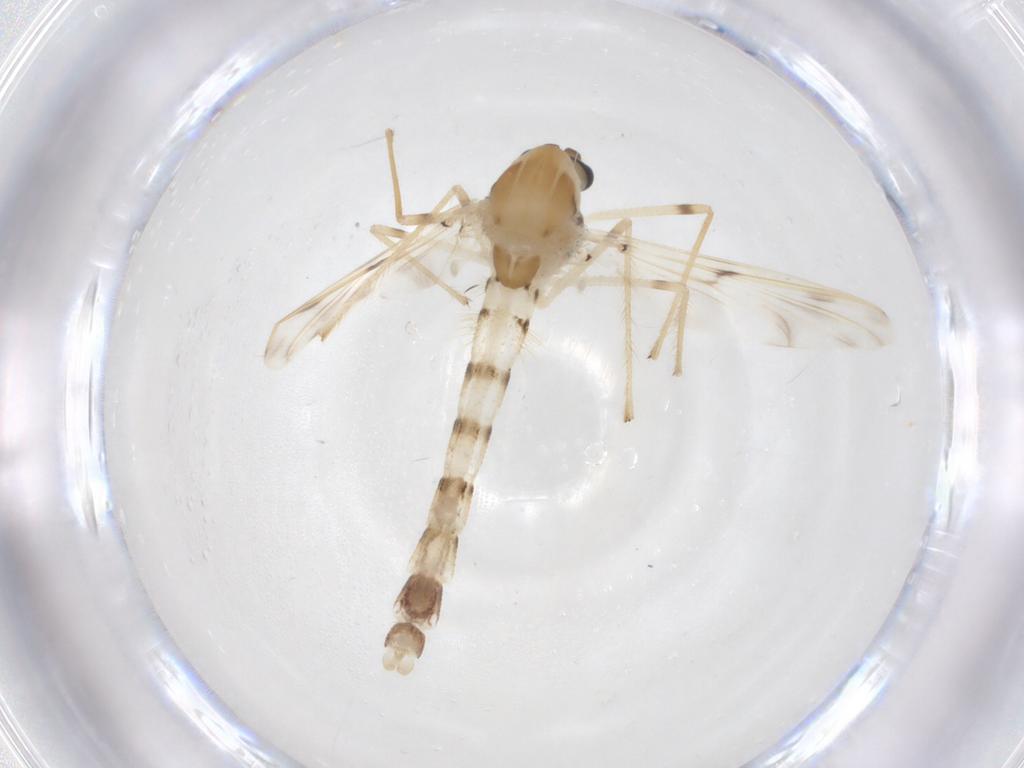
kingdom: Animalia
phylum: Arthropoda
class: Insecta
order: Diptera
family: Chironomidae
